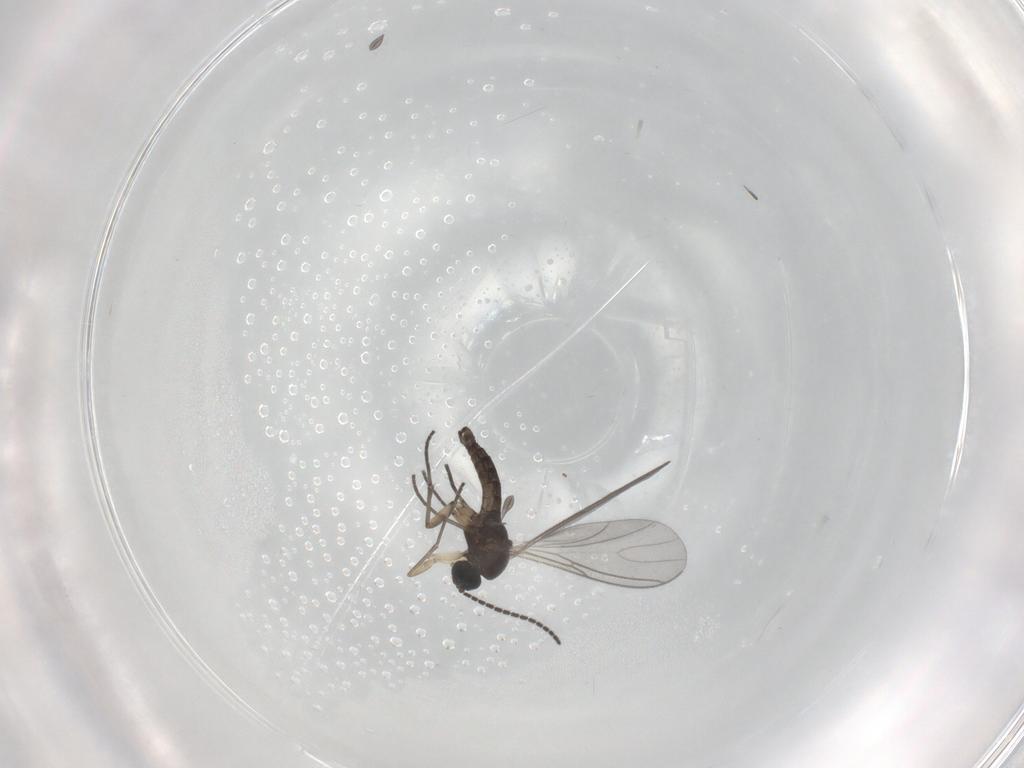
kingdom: Animalia
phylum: Arthropoda
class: Insecta
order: Diptera
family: Sciaridae
